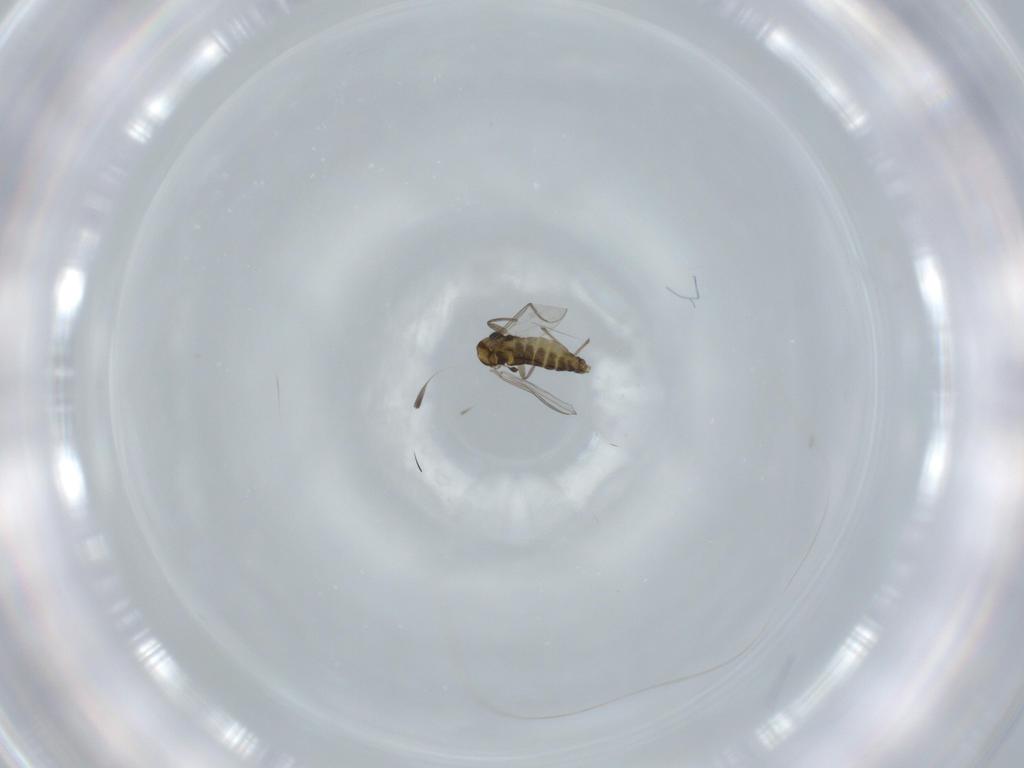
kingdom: Animalia
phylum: Arthropoda
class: Insecta
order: Diptera
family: Chironomidae
